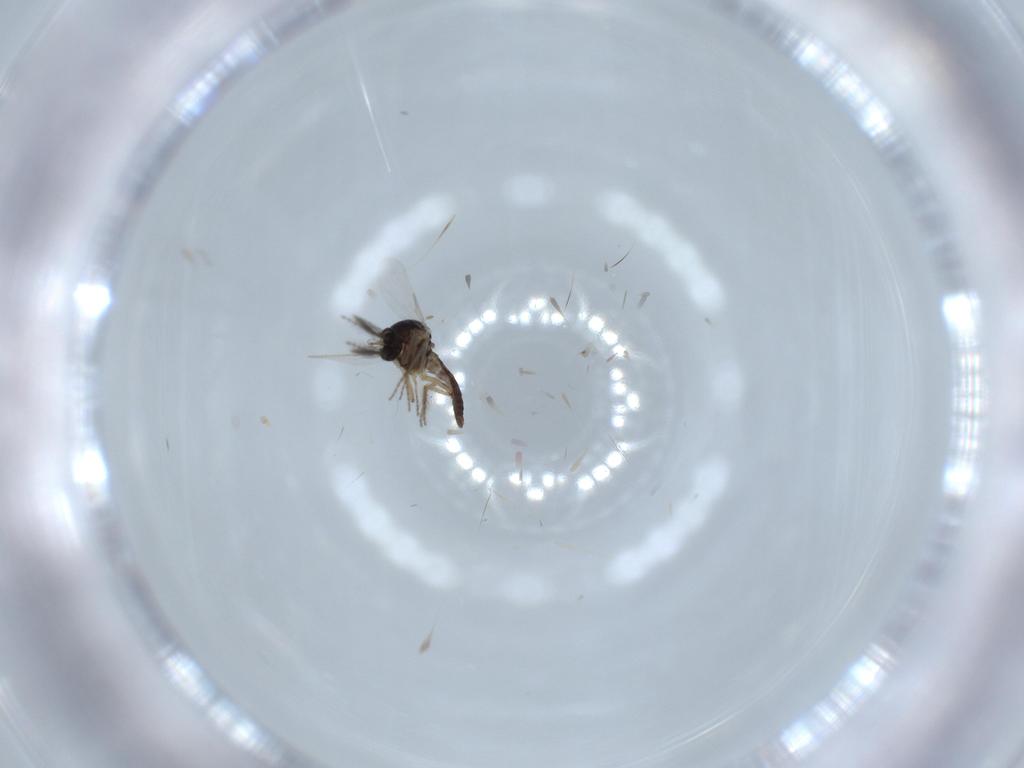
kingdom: Animalia
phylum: Arthropoda
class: Insecta
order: Diptera
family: Limoniidae
